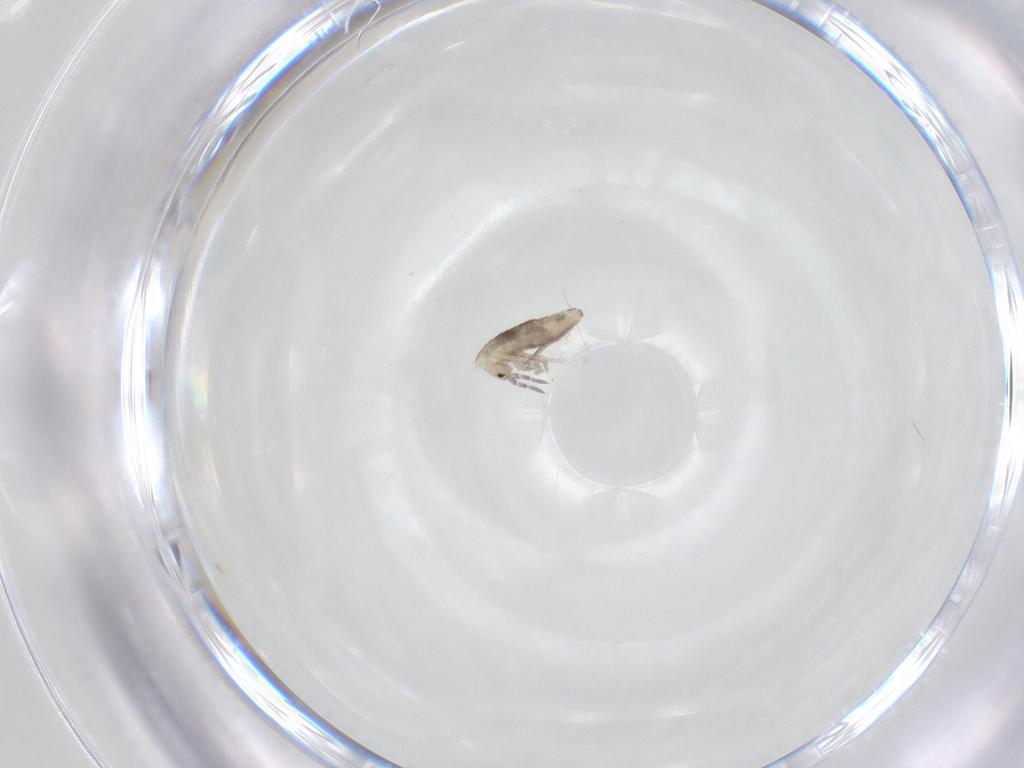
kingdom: Animalia
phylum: Arthropoda
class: Collembola
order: Entomobryomorpha
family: Entomobryidae
